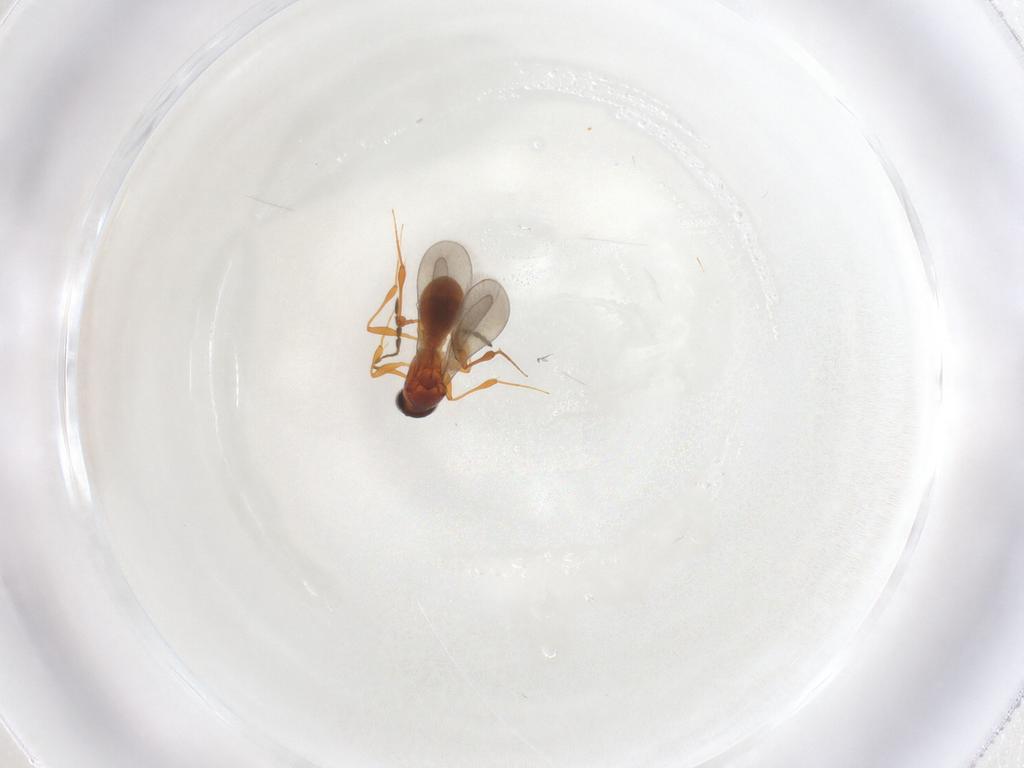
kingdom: Animalia
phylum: Arthropoda
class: Insecta
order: Hymenoptera
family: Platygastridae
